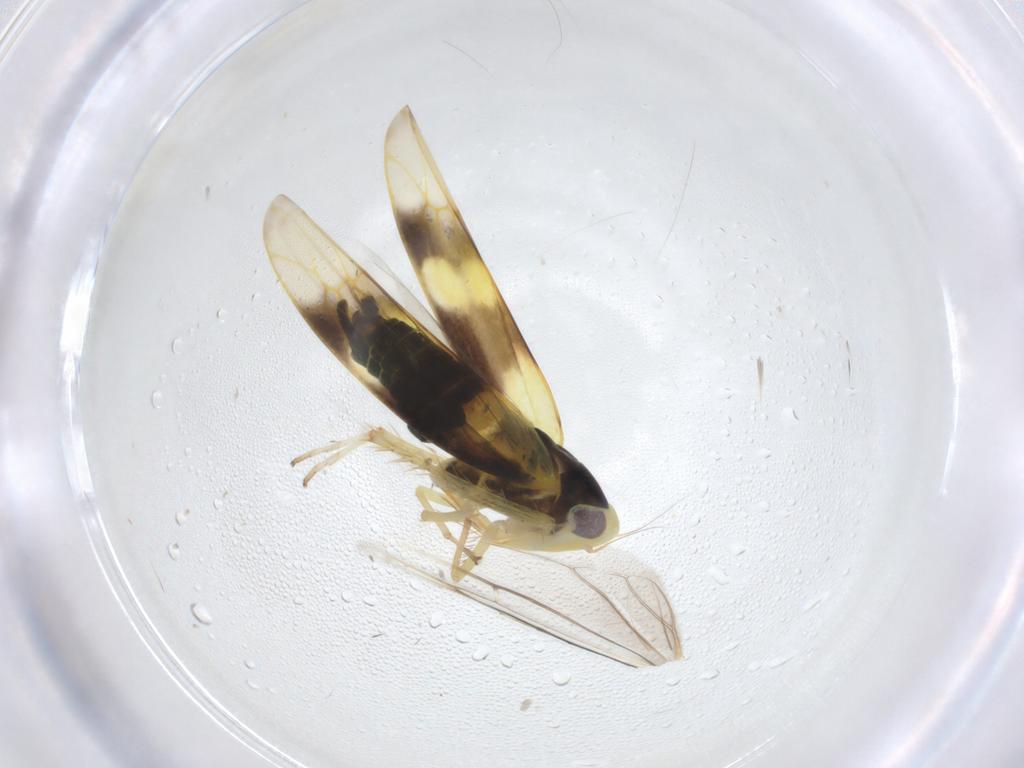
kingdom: Animalia
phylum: Arthropoda
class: Insecta
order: Hemiptera
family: Cicadellidae
